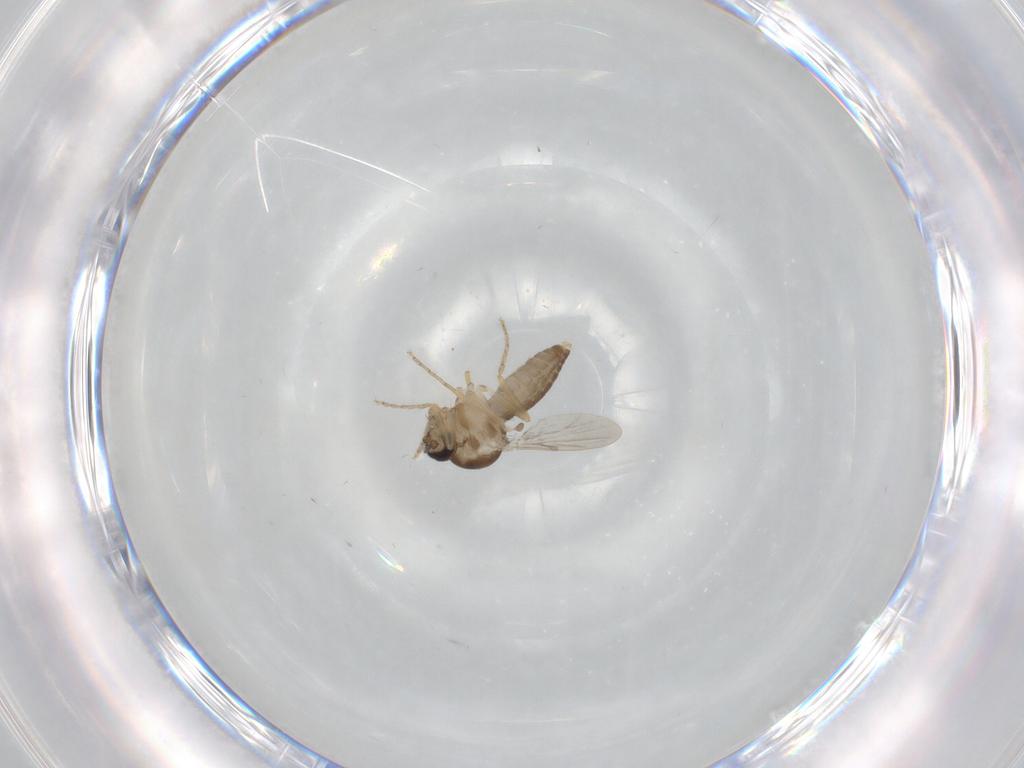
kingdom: Animalia
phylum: Arthropoda
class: Insecta
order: Diptera
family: Ceratopogonidae
